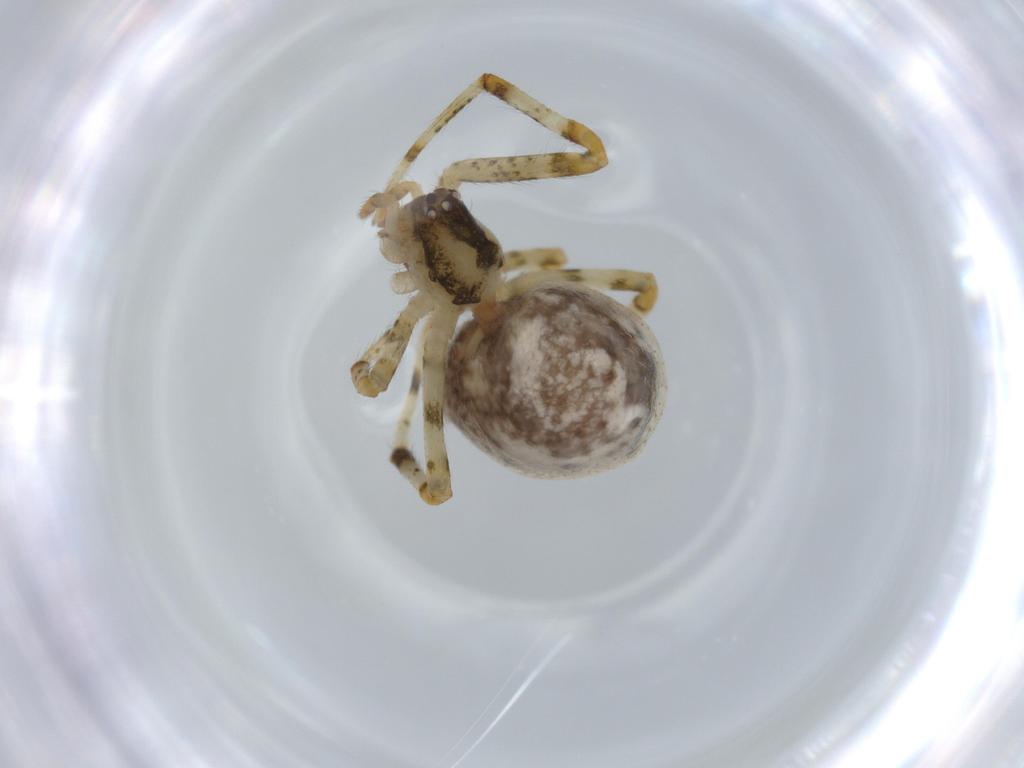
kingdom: Animalia
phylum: Arthropoda
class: Arachnida
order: Araneae
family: Theridiidae
